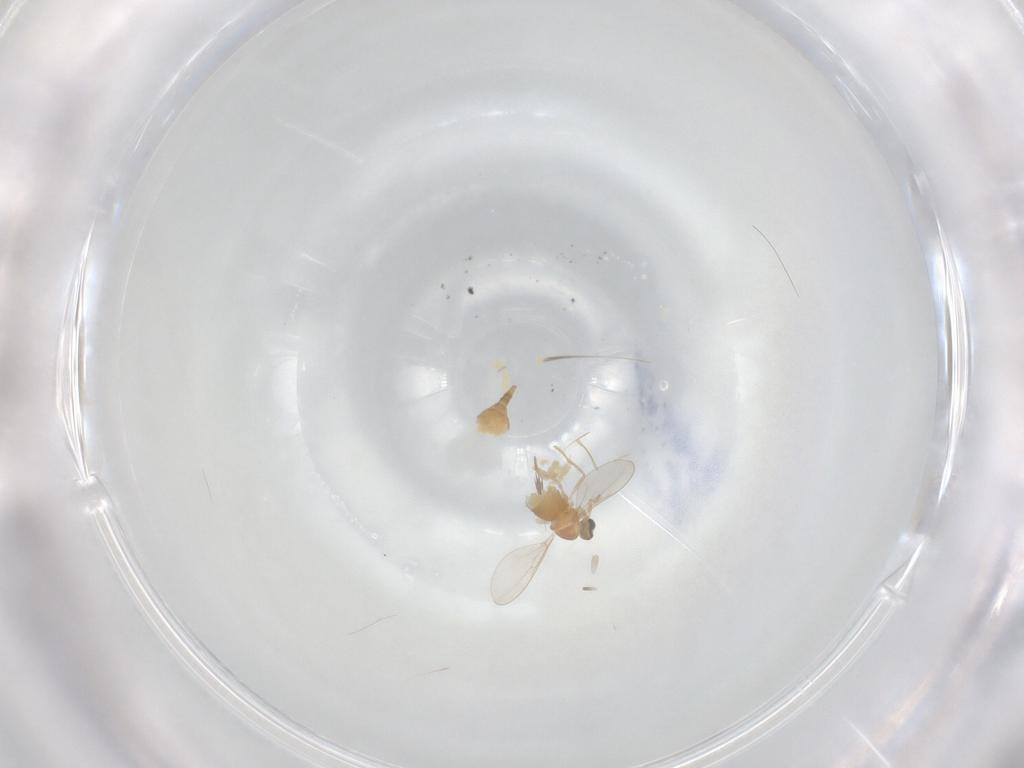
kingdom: Animalia
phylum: Arthropoda
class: Insecta
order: Diptera
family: Cecidomyiidae
